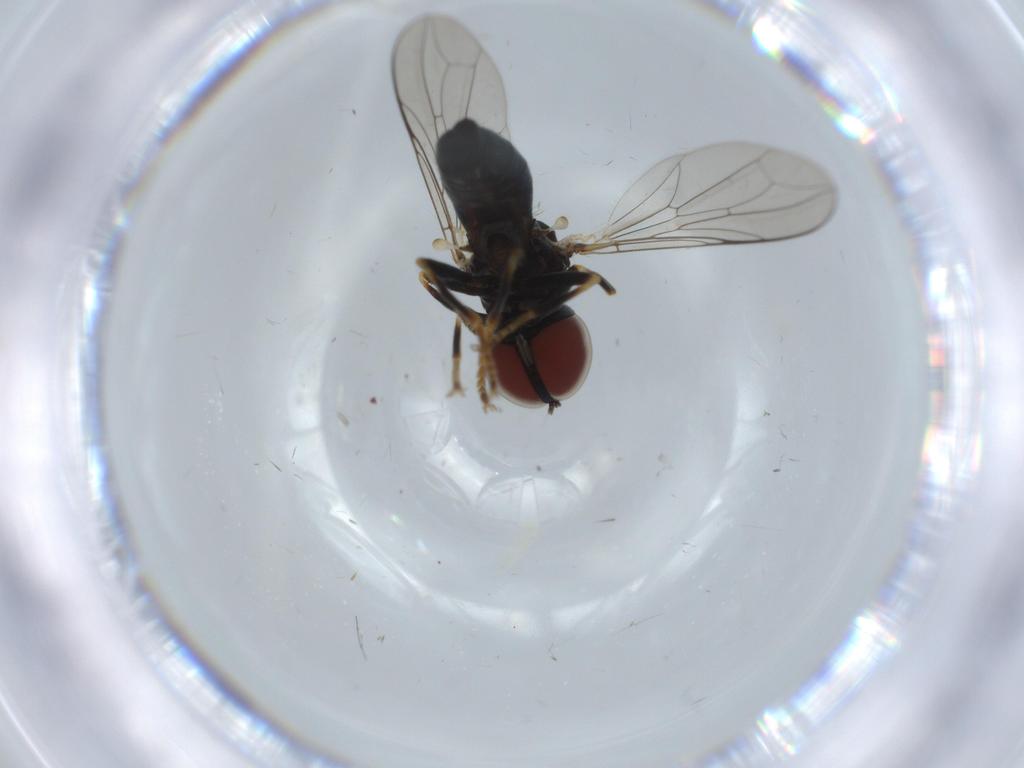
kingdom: Animalia
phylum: Arthropoda
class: Insecta
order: Diptera
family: Pipunculidae
